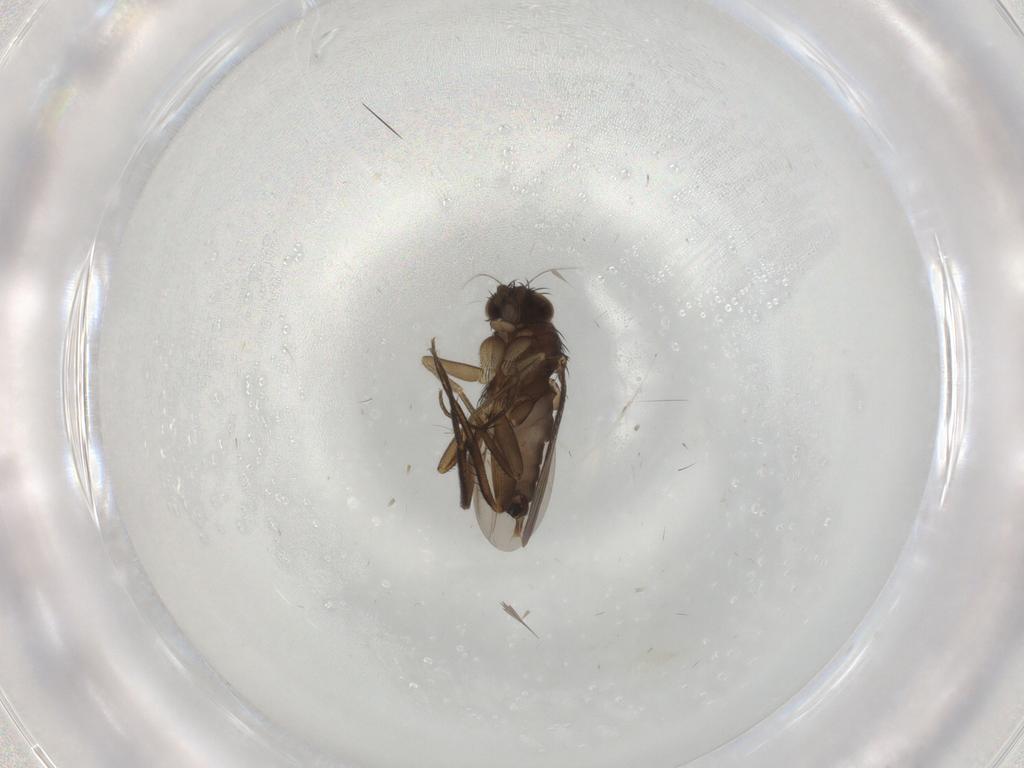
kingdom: Animalia
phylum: Arthropoda
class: Insecta
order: Diptera
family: Phoridae
